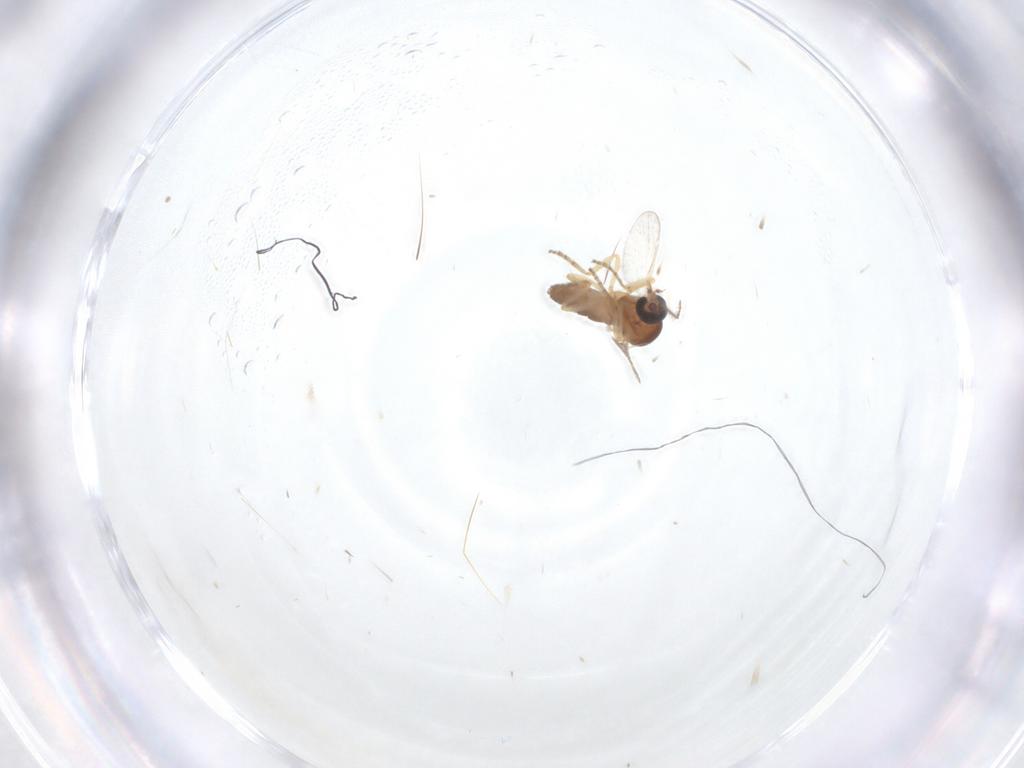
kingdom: Animalia
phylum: Arthropoda
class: Insecta
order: Diptera
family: Ceratopogonidae
